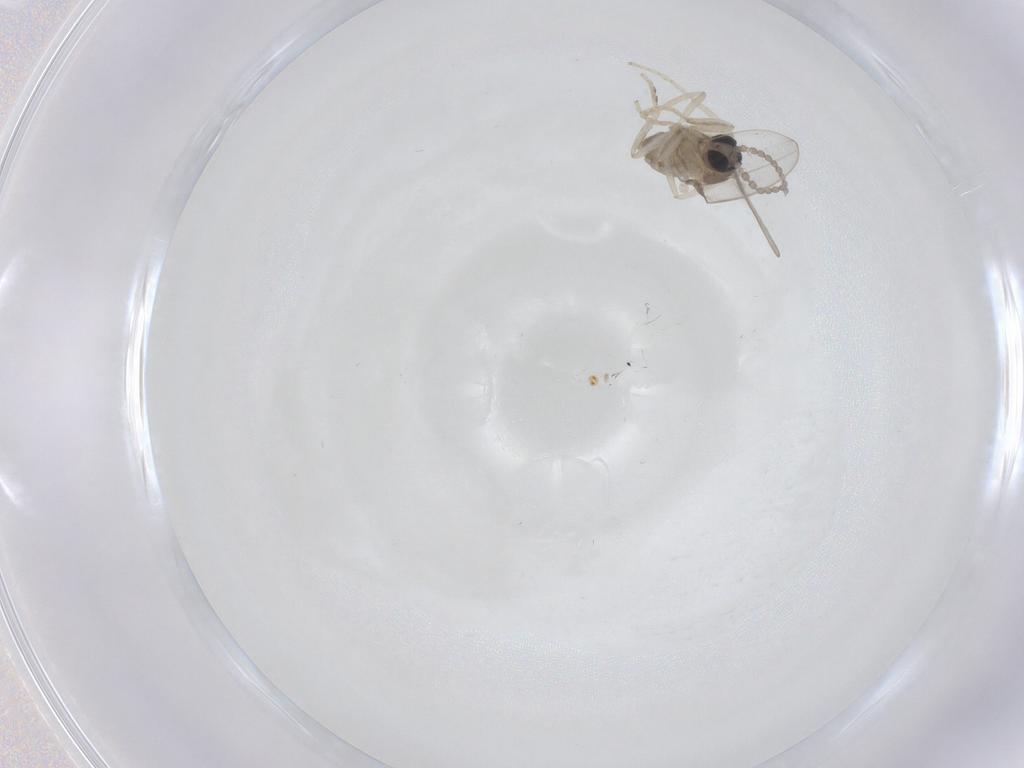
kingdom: Animalia
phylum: Arthropoda
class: Insecta
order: Diptera
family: Cecidomyiidae
